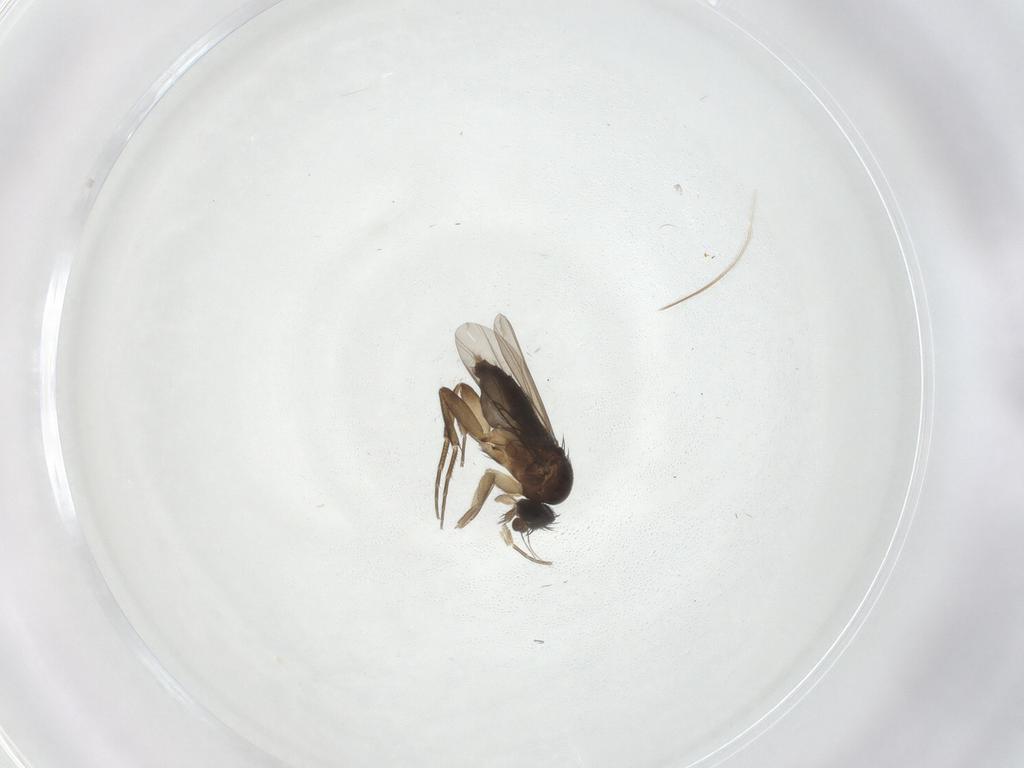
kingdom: Animalia
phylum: Arthropoda
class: Insecta
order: Diptera
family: Phoridae
